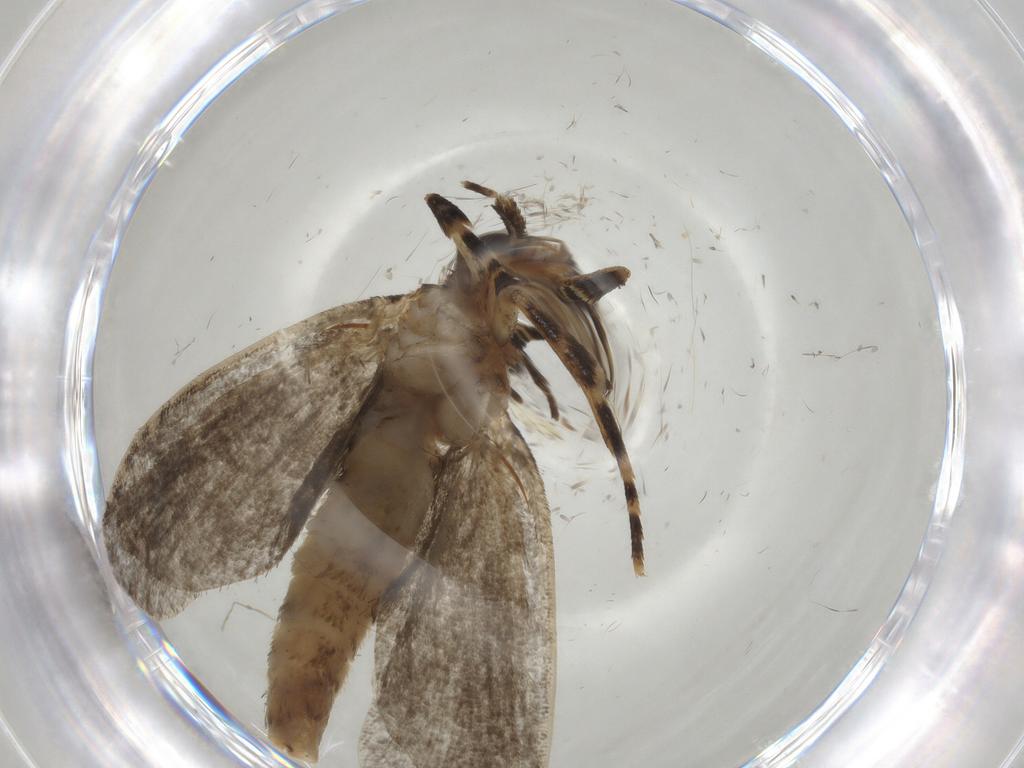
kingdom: Animalia
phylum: Arthropoda
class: Insecta
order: Lepidoptera
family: Tineidae
